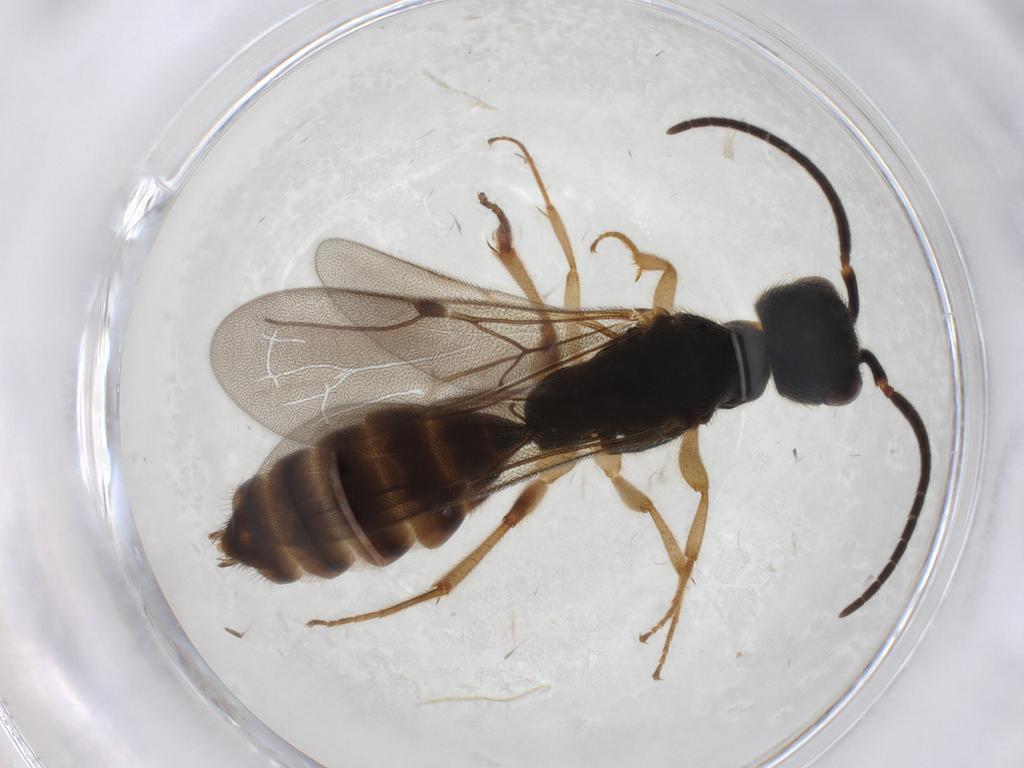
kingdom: Animalia
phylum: Arthropoda
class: Insecta
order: Hymenoptera
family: Bethylidae
